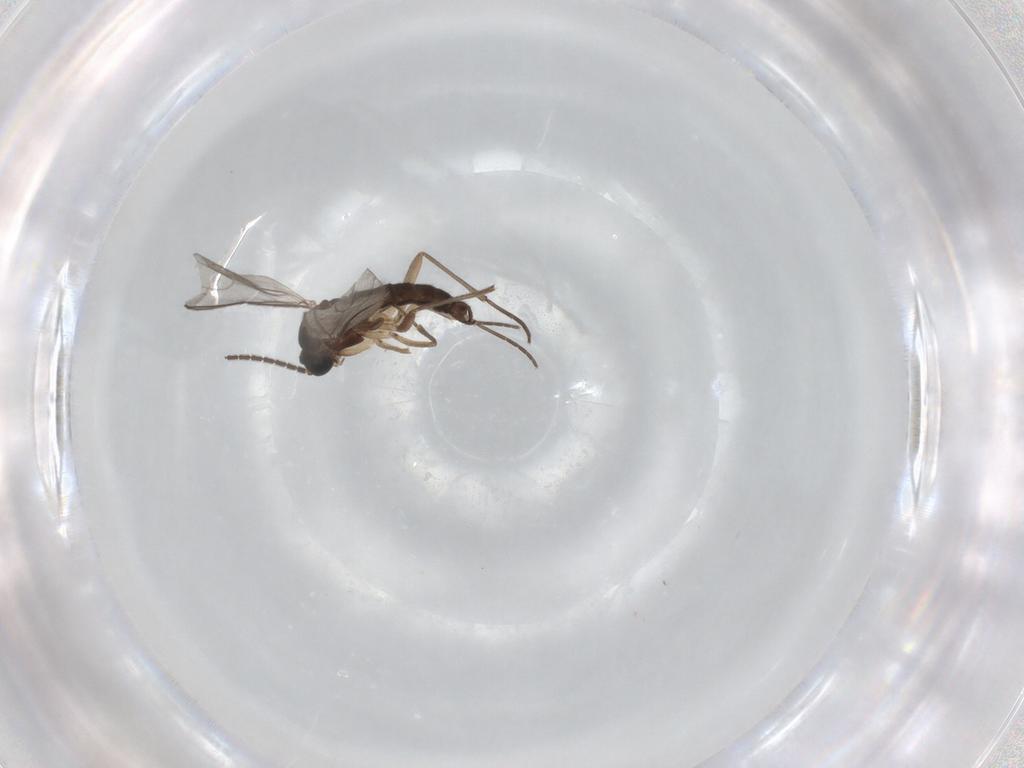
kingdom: Animalia
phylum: Arthropoda
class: Insecta
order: Diptera
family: Sciaridae
